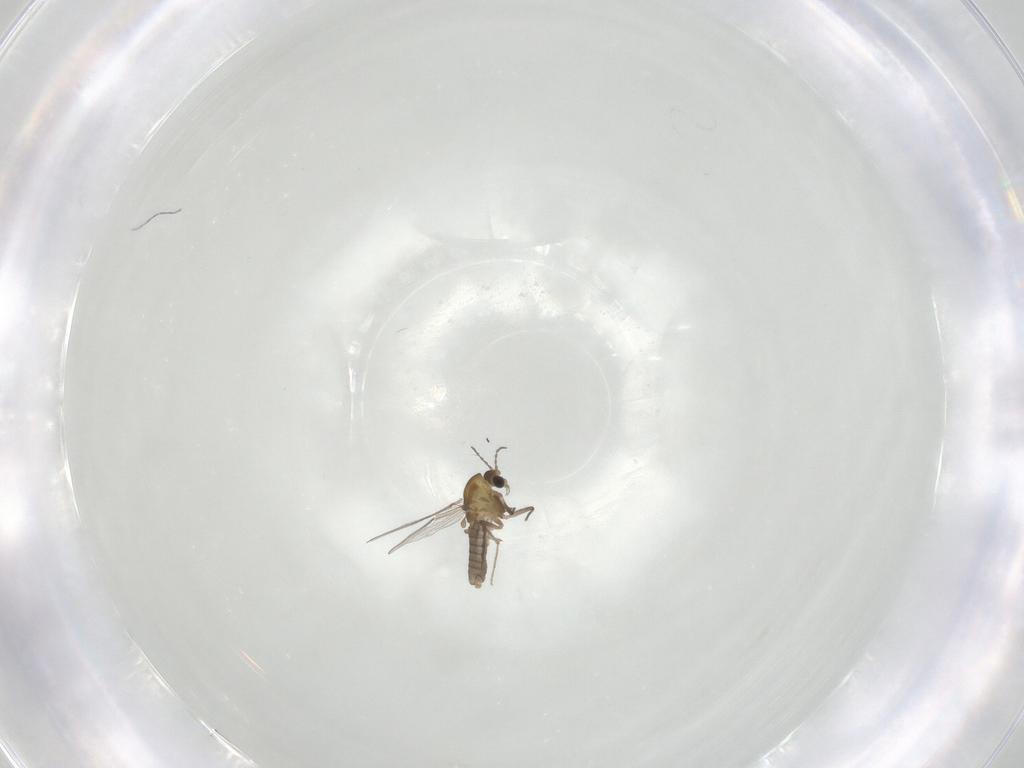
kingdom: Animalia
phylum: Arthropoda
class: Insecta
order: Diptera
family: Chironomidae
